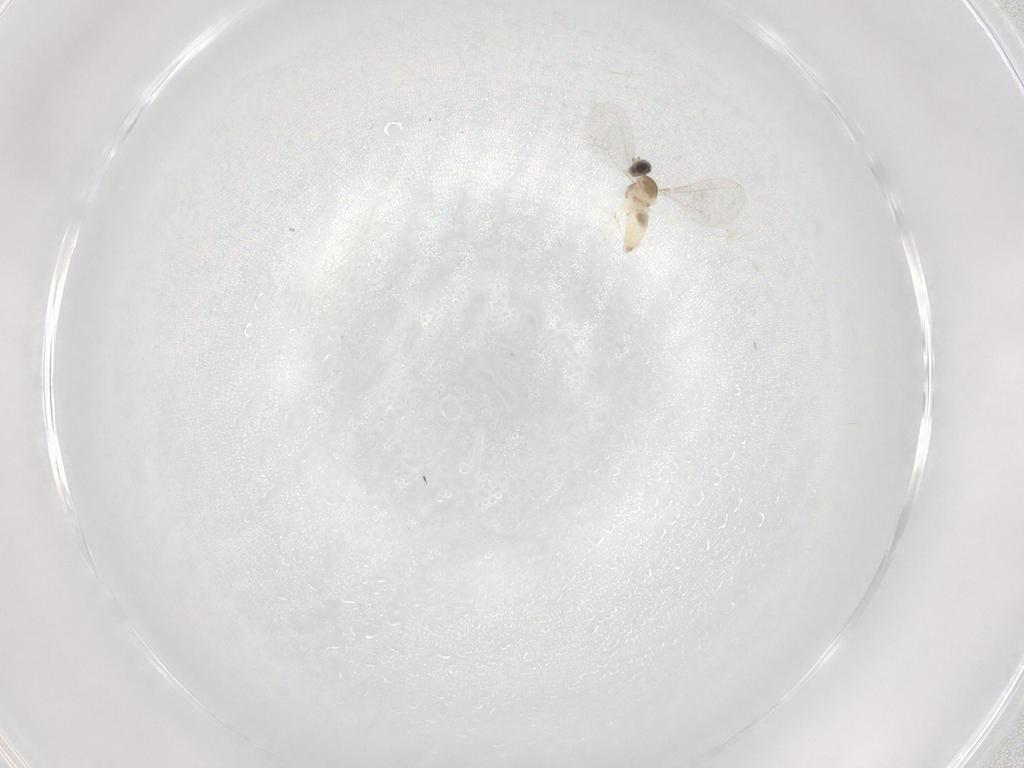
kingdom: Animalia
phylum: Arthropoda
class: Insecta
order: Diptera
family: Cecidomyiidae
